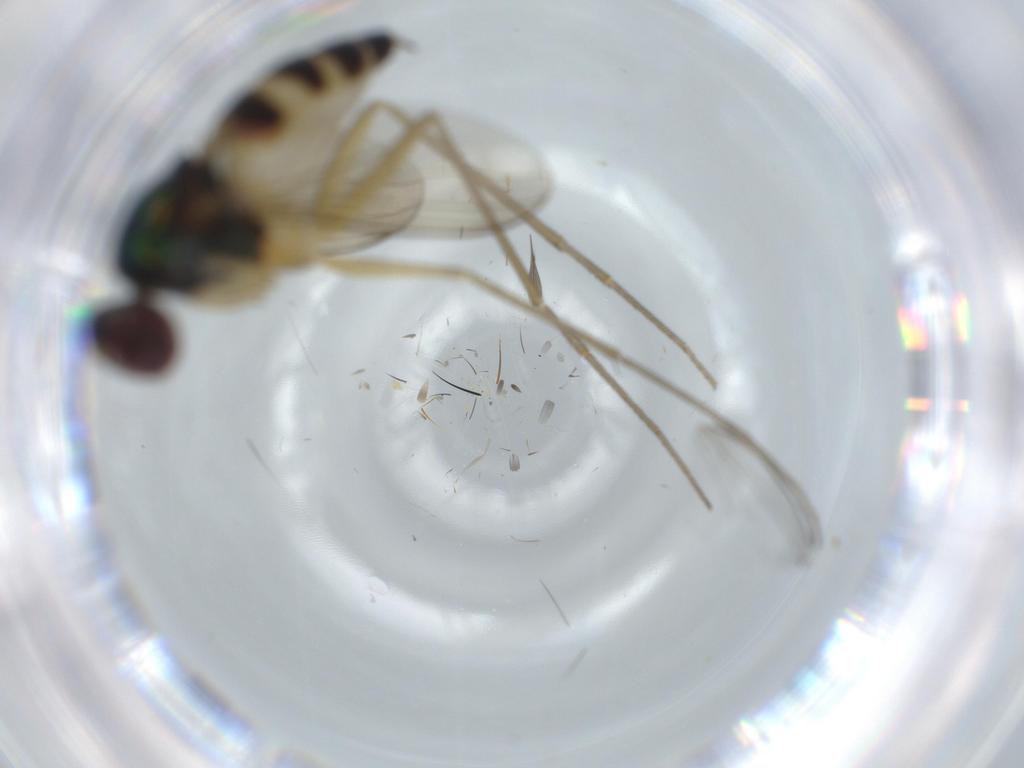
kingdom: Animalia
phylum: Arthropoda
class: Insecta
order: Diptera
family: Dolichopodidae
